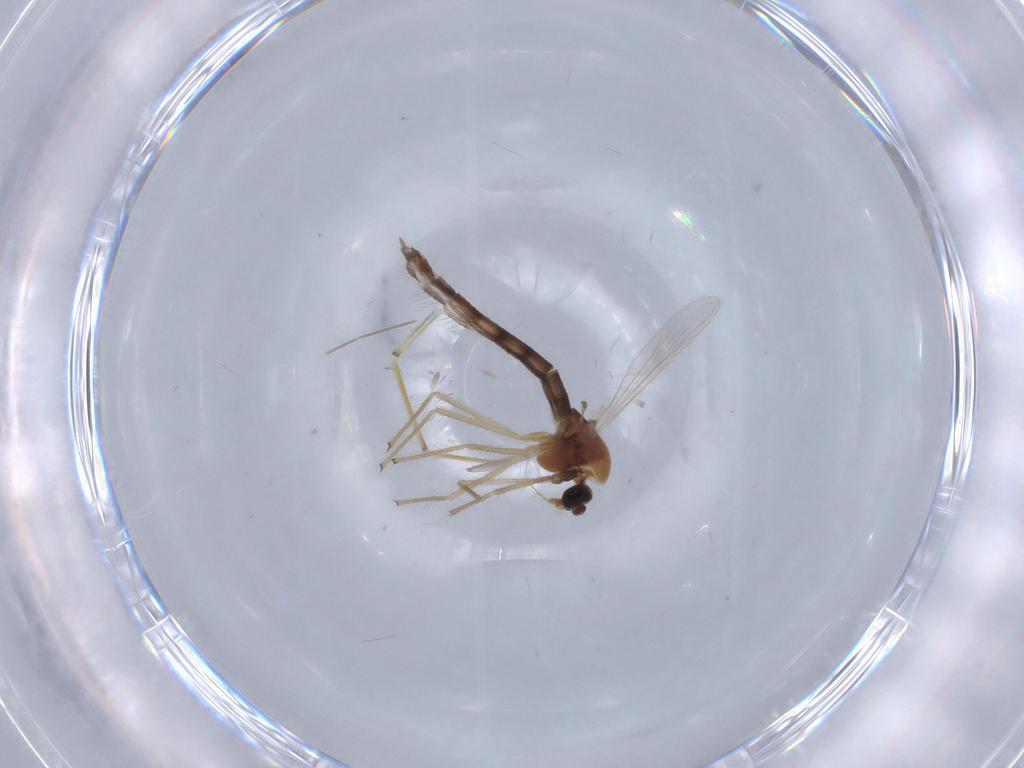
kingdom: Animalia
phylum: Arthropoda
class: Insecta
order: Diptera
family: Chironomidae
